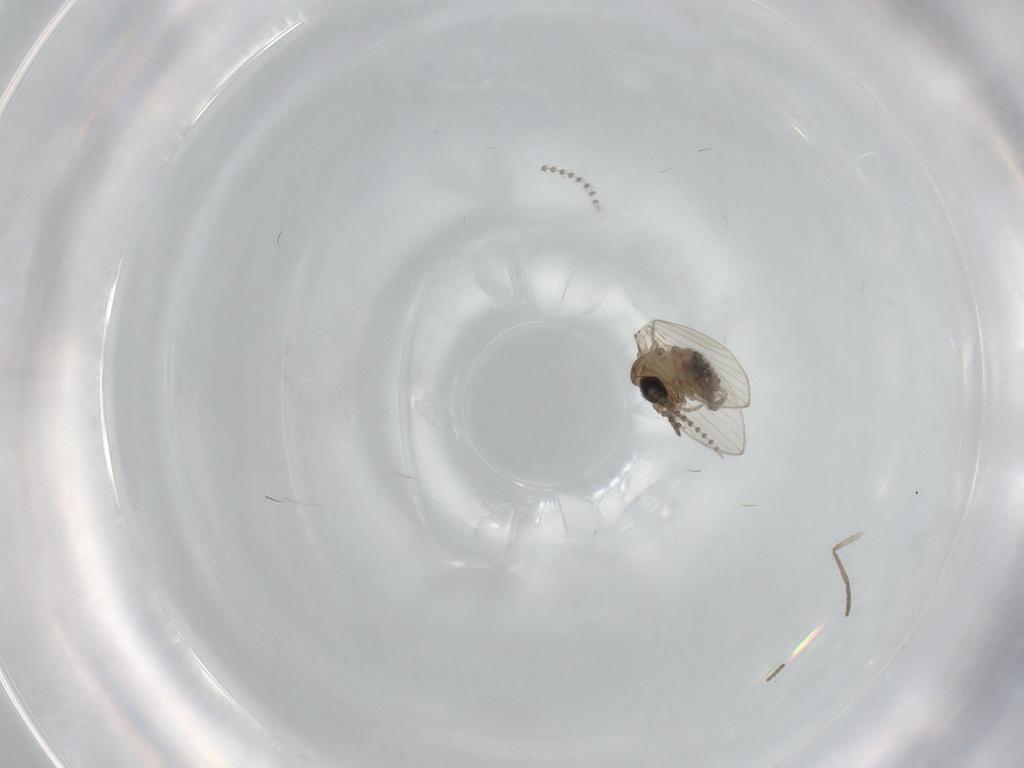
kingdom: Animalia
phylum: Arthropoda
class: Insecta
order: Diptera
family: Psychodidae
